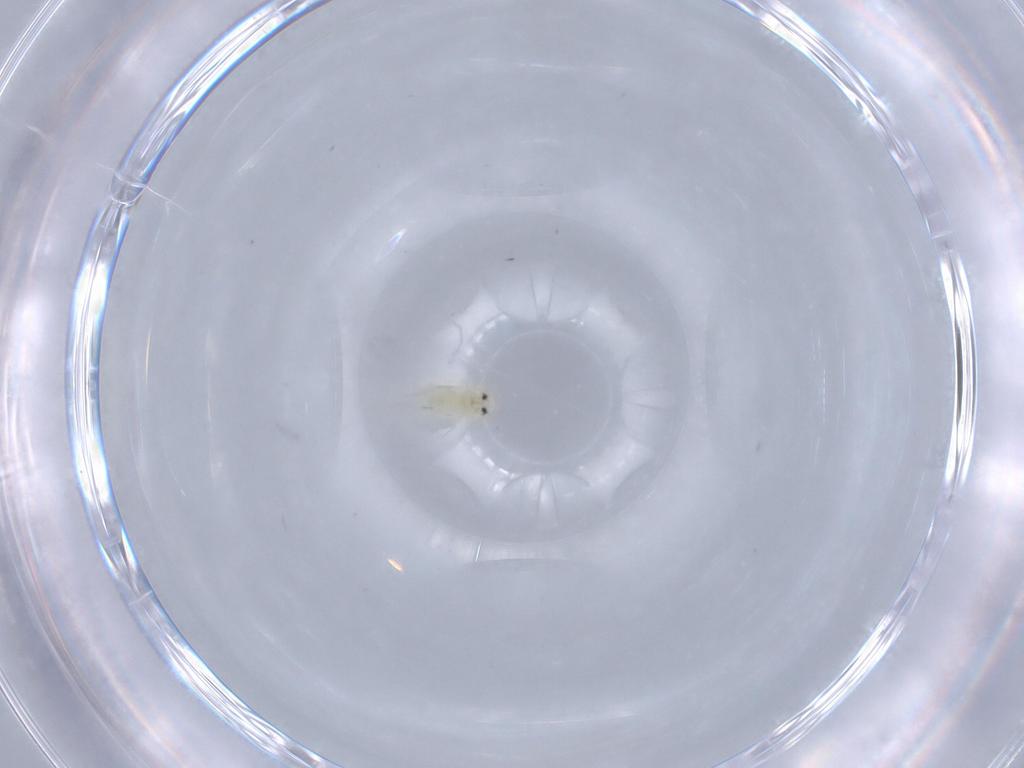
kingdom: Animalia
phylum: Arthropoda
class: Insecta
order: Hemiptera
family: Aleyrodidae
